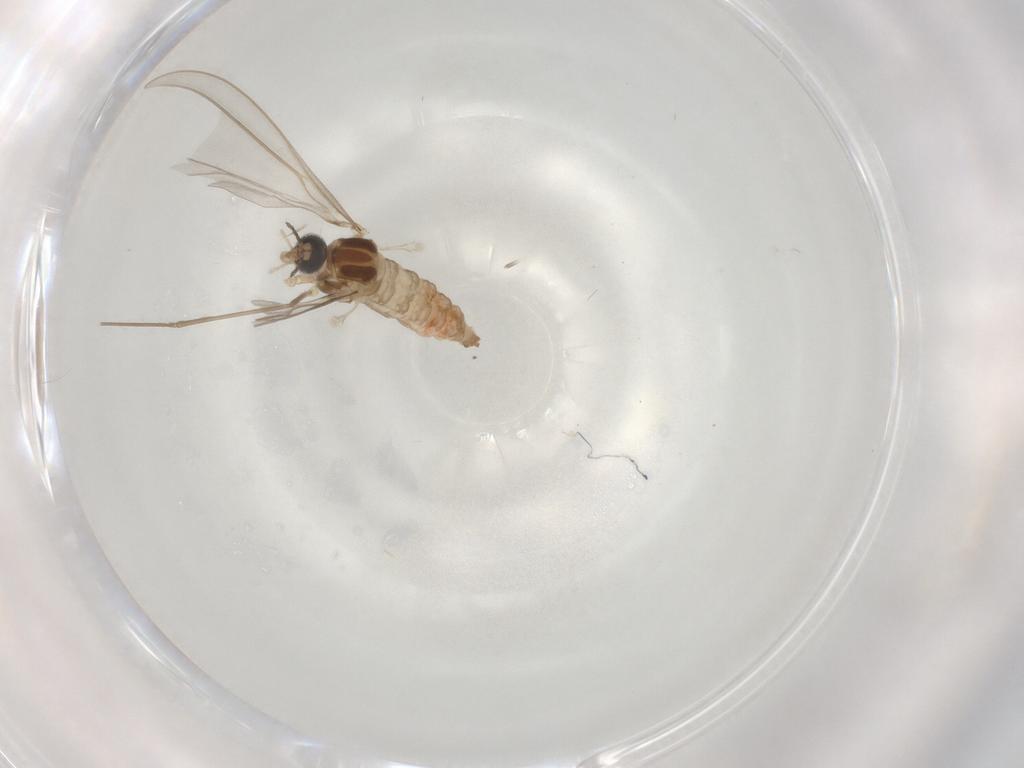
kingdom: Animalia
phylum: Arthropoda
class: Insecta
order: Diptera
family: Cecidomyiidae
